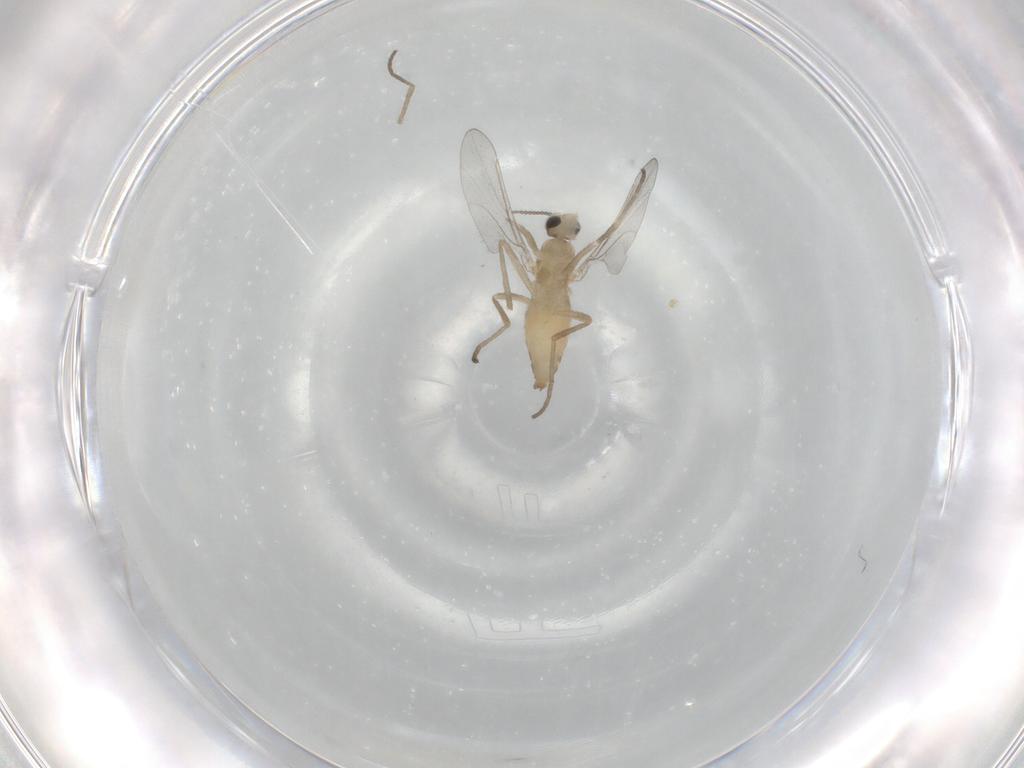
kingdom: Animalia
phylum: Arthropoda
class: Insecta
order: Diptera
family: Cecidomyiidae
